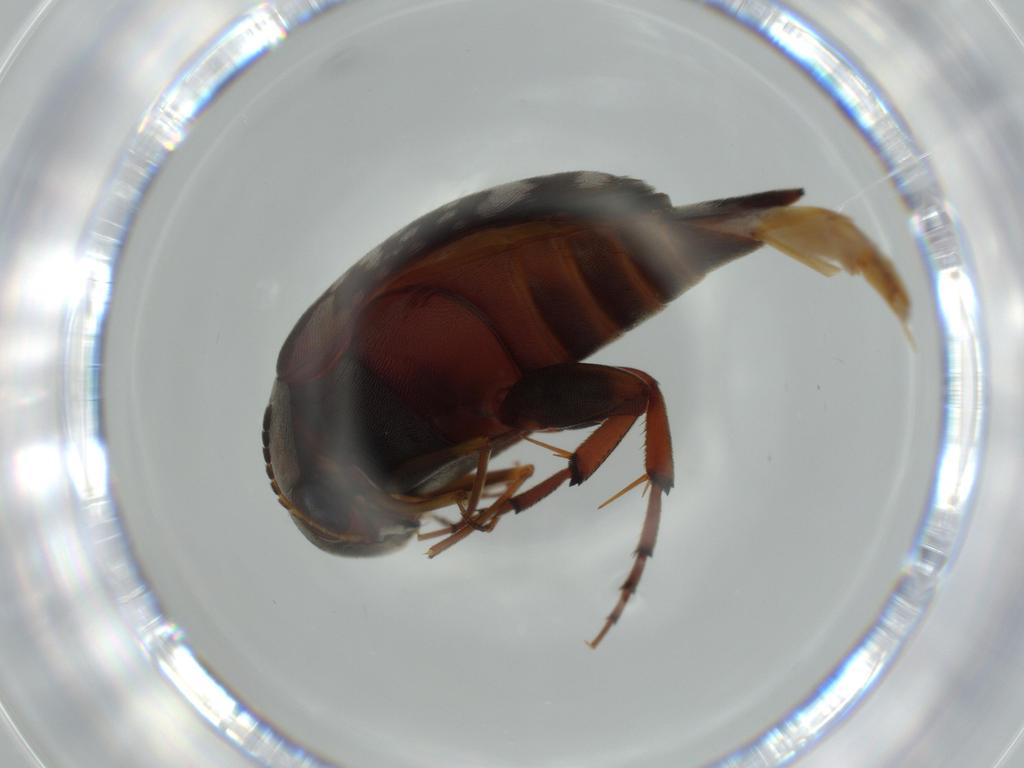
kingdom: Animalia
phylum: Arthropoda
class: Insecta
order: Coleoptera
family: Mordellidae
